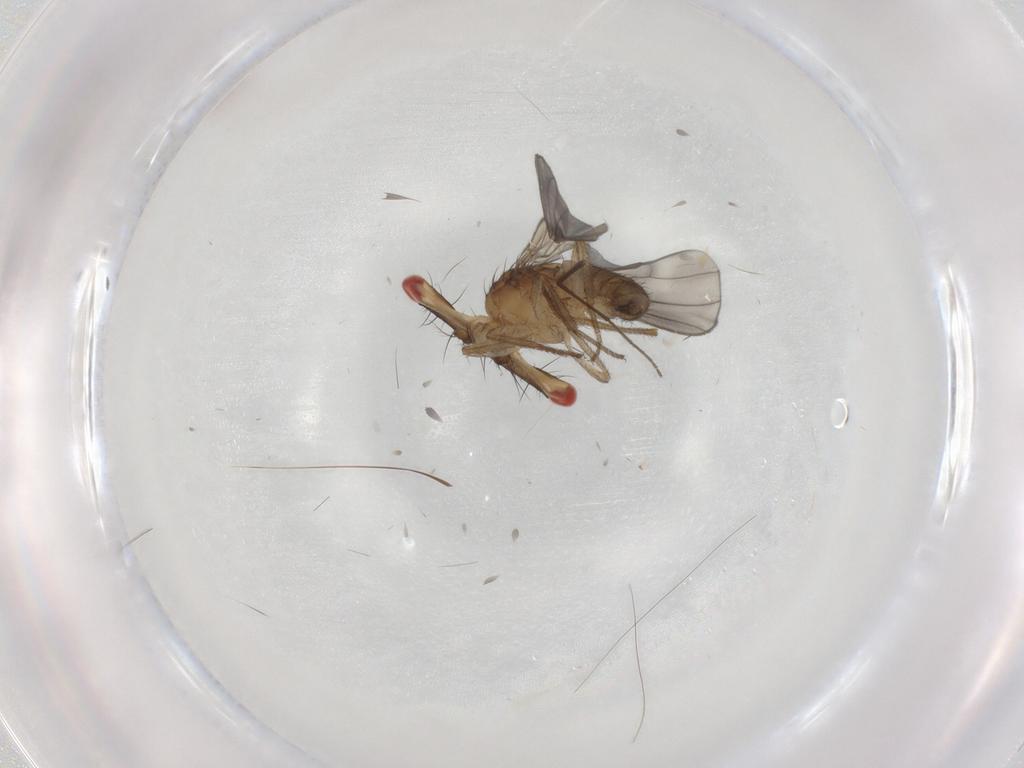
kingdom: Animalia
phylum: Arthropoda
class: Insecta
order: Diptera
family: Drosophilidae
